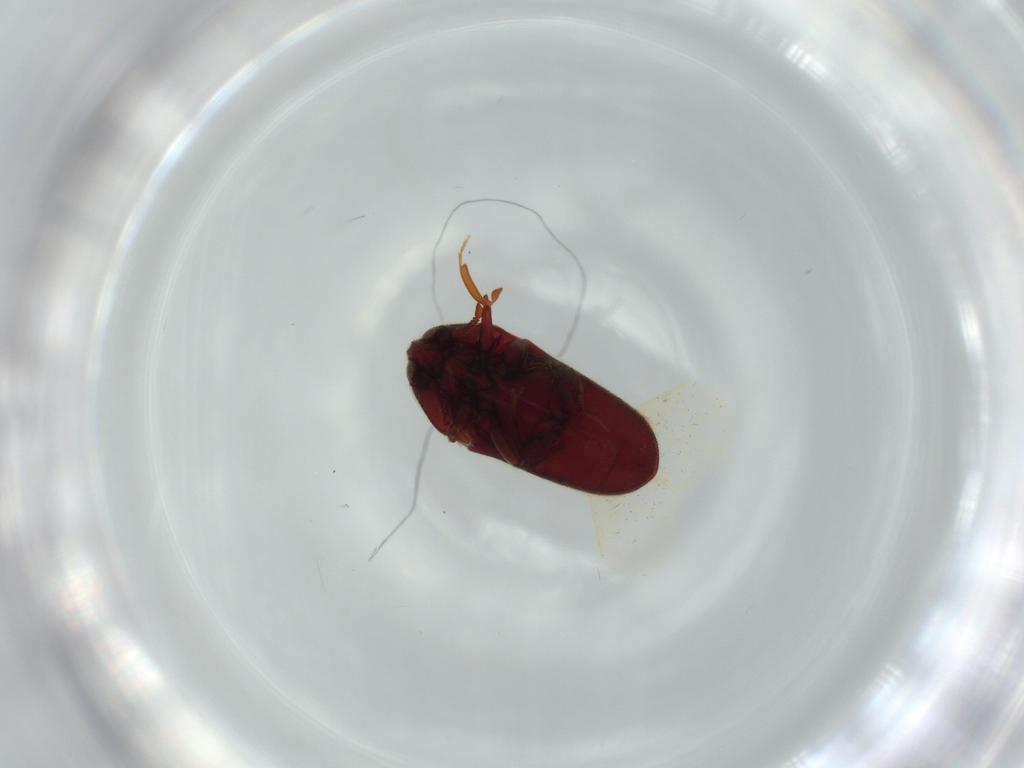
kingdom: Animalia
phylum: Arthropoda
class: Insecta
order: Coleoptera
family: Throscidae
